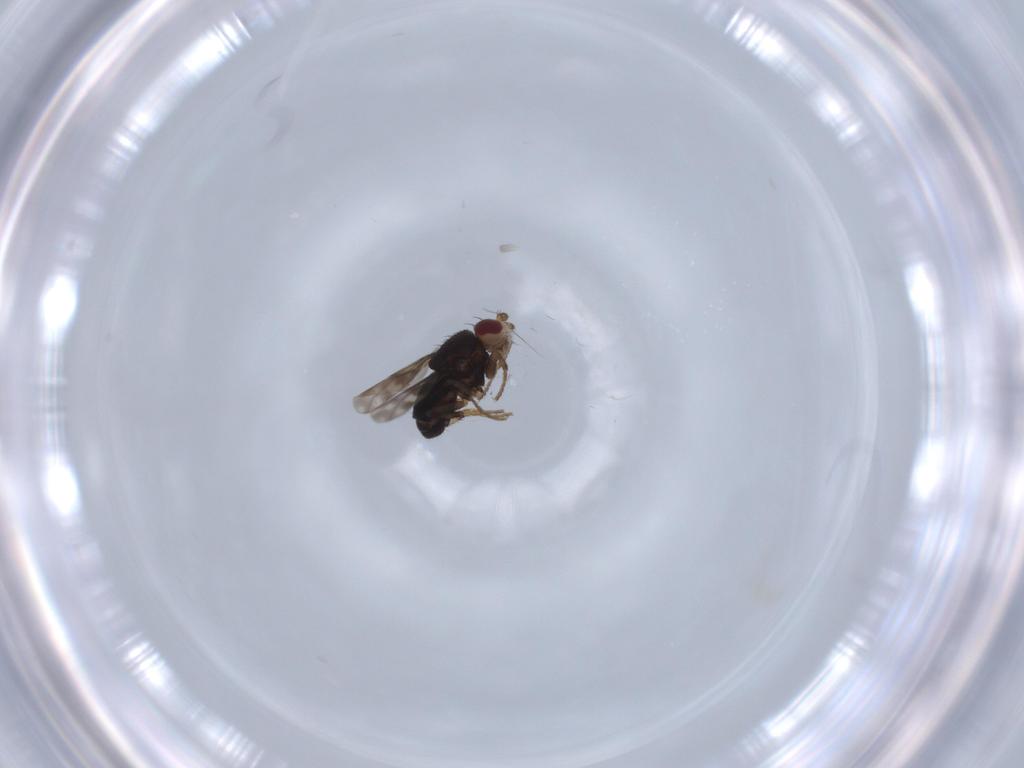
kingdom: Animalia
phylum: Arthropoda
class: Insecta
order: Diptera
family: Sphaeroceridae
